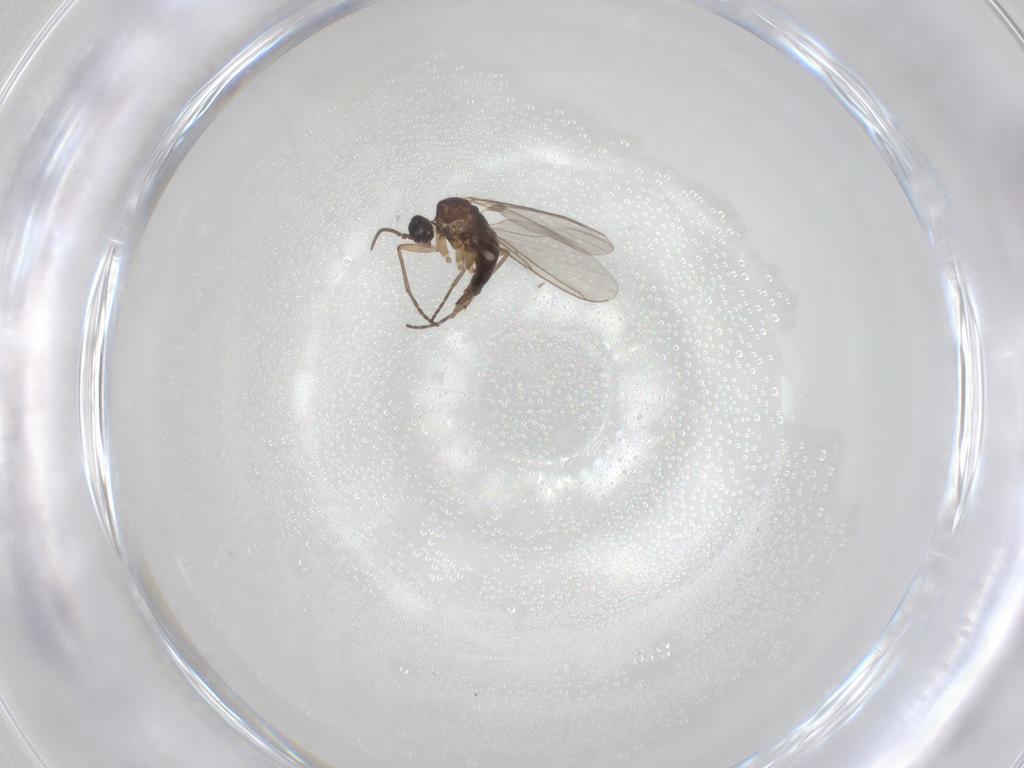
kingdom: Animalia
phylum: Arthropoda
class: Insecta
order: Diptera
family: Sciaridae
